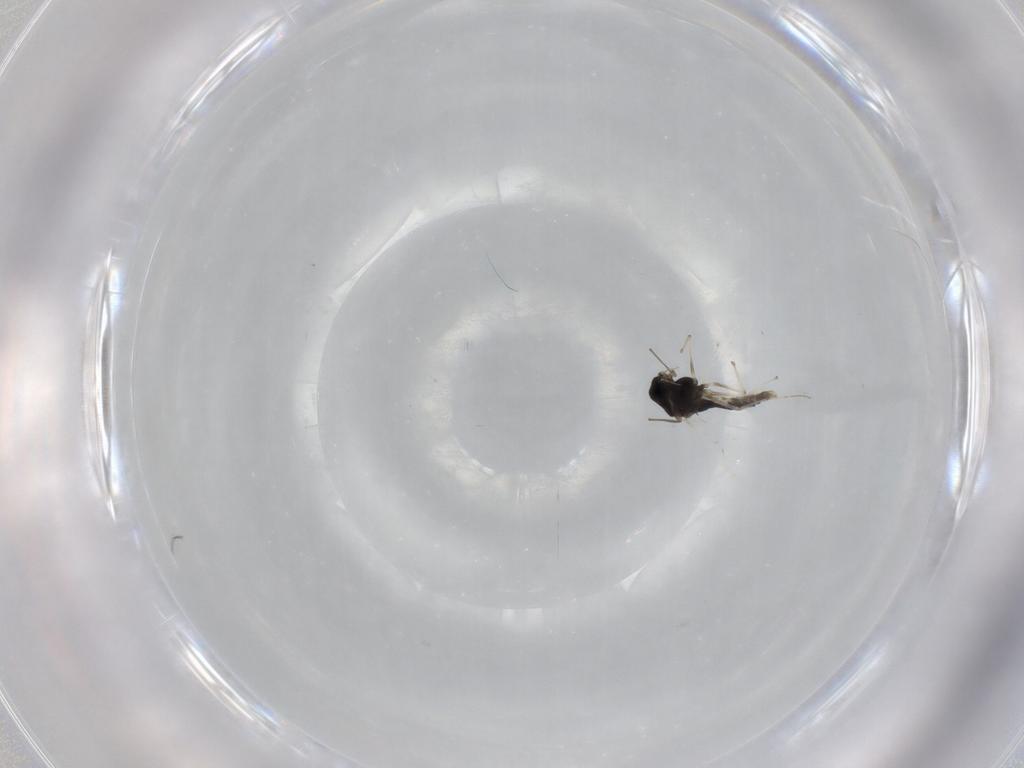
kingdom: Animalia
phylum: Arthropoda
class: Insecta
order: Diptera
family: Chironomidae
